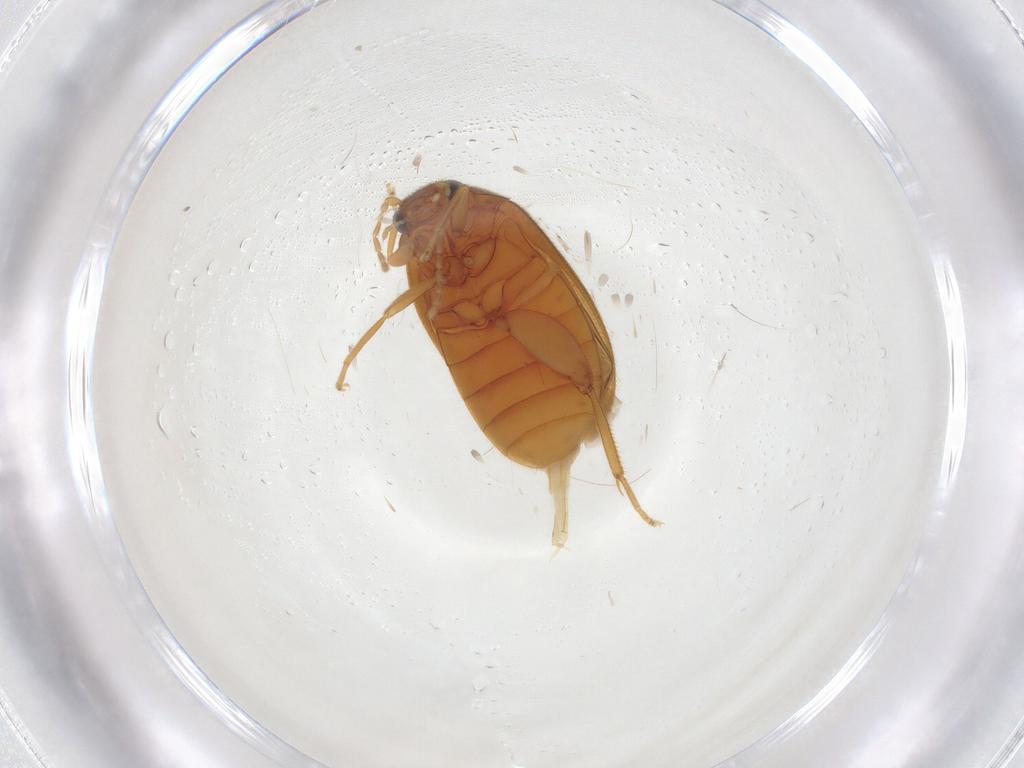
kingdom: Animalia
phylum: Arthropoda
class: Insecta
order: Coleoptera
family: Scirtidae
